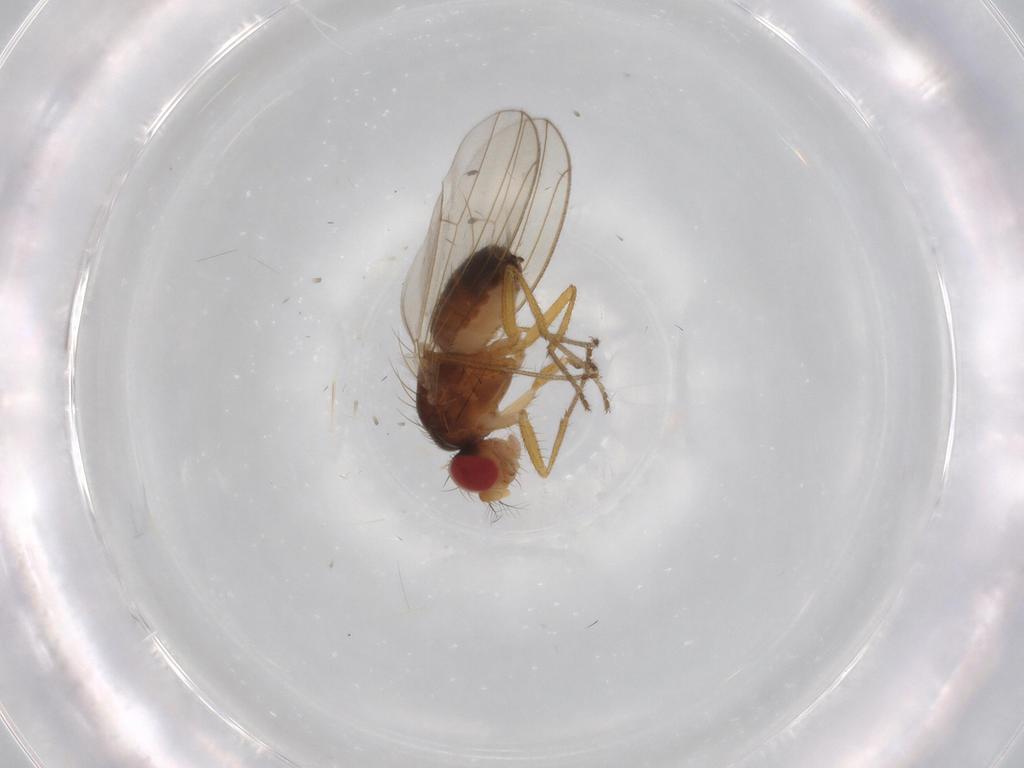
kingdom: Animalia
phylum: Arthropoda
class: Insecta
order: Diptera
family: Drosophilidae
